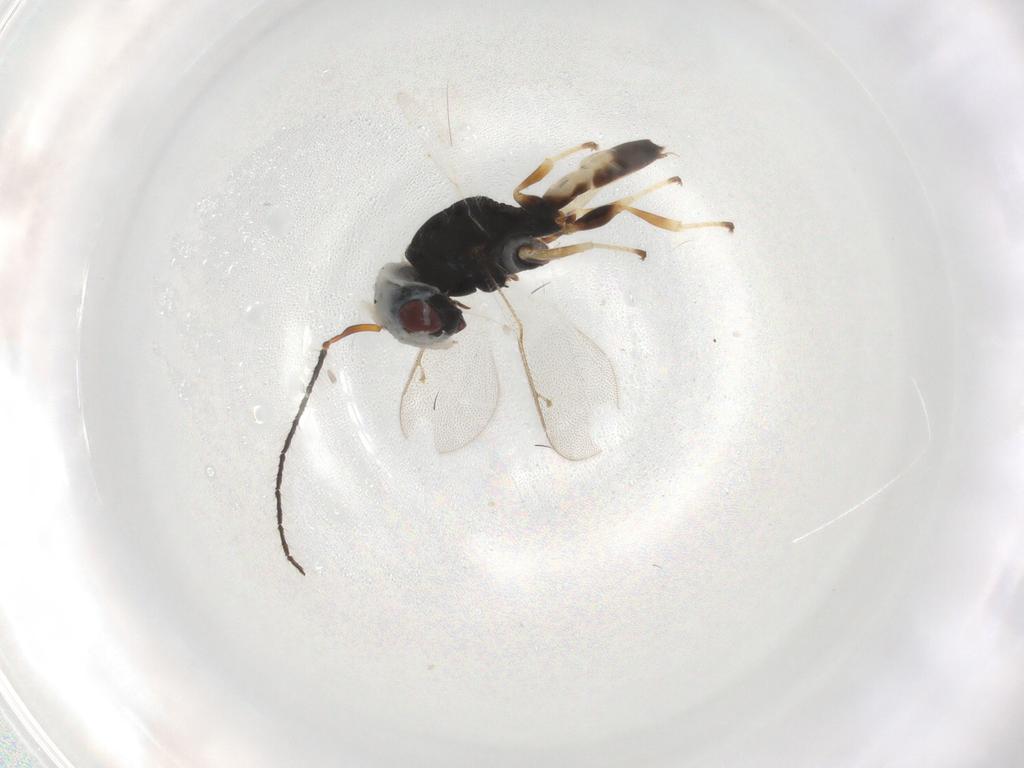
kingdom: Animalia
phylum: Arthropoda
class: Insecta
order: Hymenoptera
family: Pteromalidae
